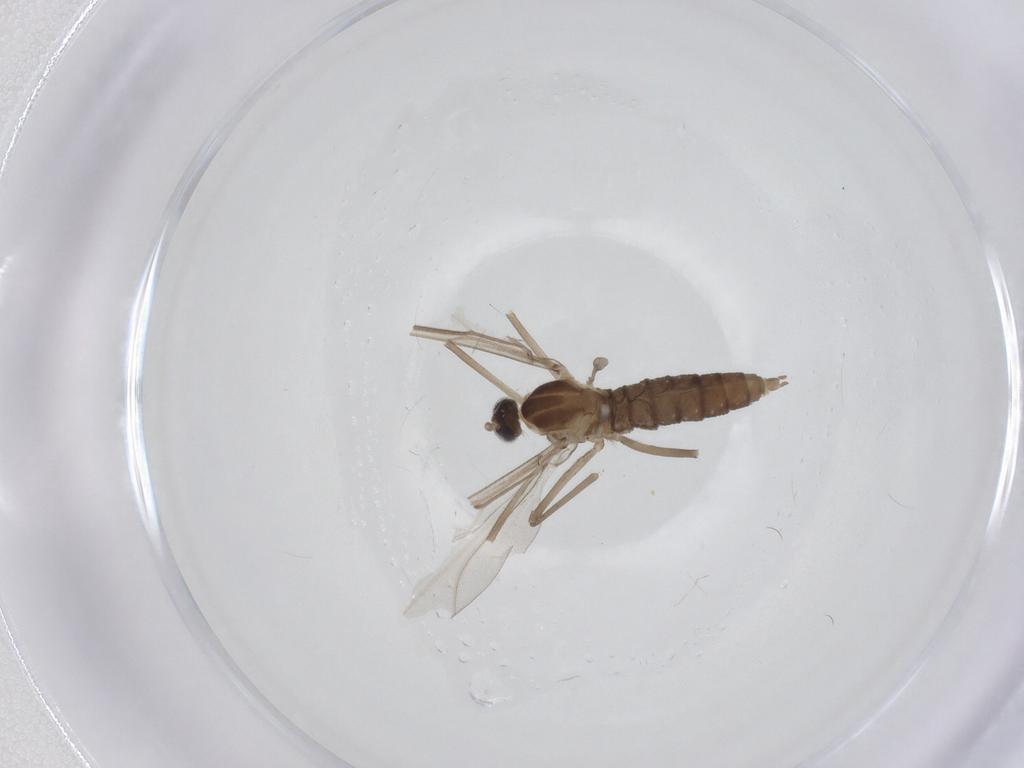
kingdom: Animalia
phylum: Arthropoda
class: Insecta
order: Diptera
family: Cecidomyiidae
